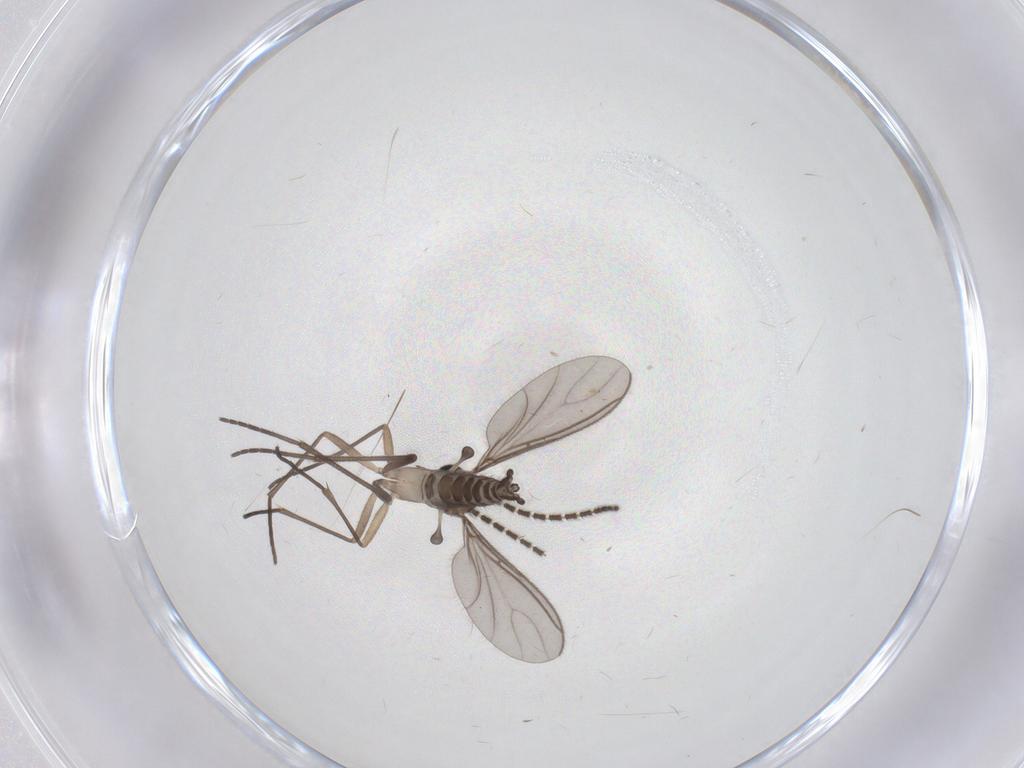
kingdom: Animalia
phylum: Arthropoda
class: Insecta
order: Diptera
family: Sciaridae
